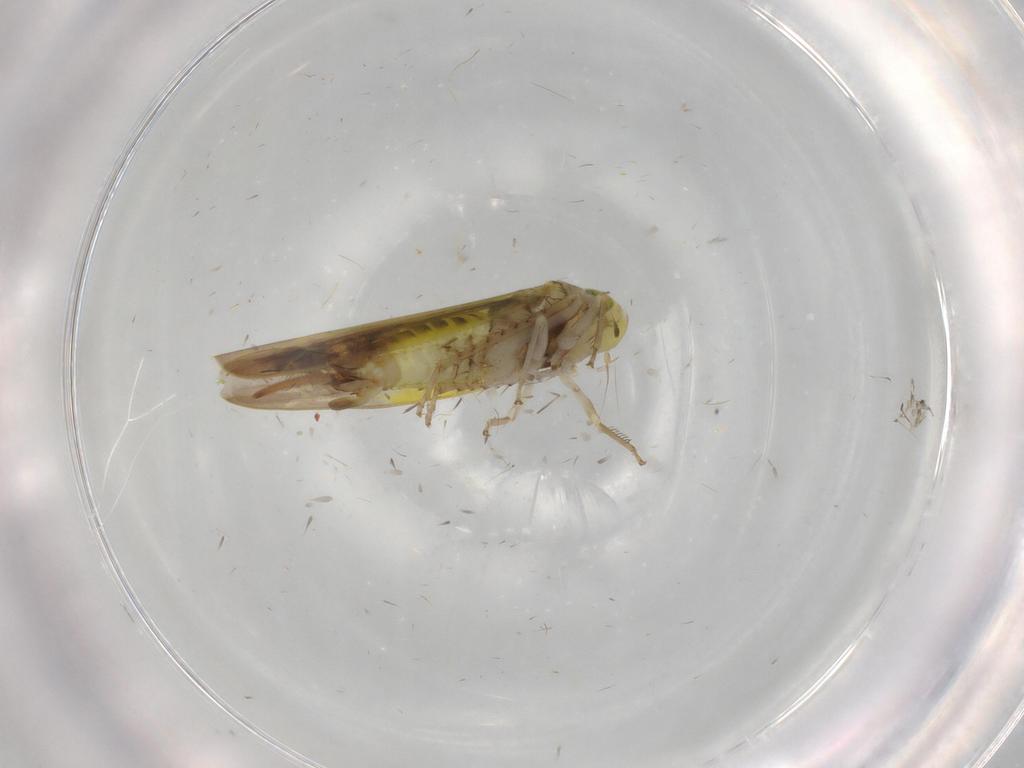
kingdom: Animalia
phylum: Arthropoda
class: Insecta
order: Hemiptera
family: Cicadellidae
